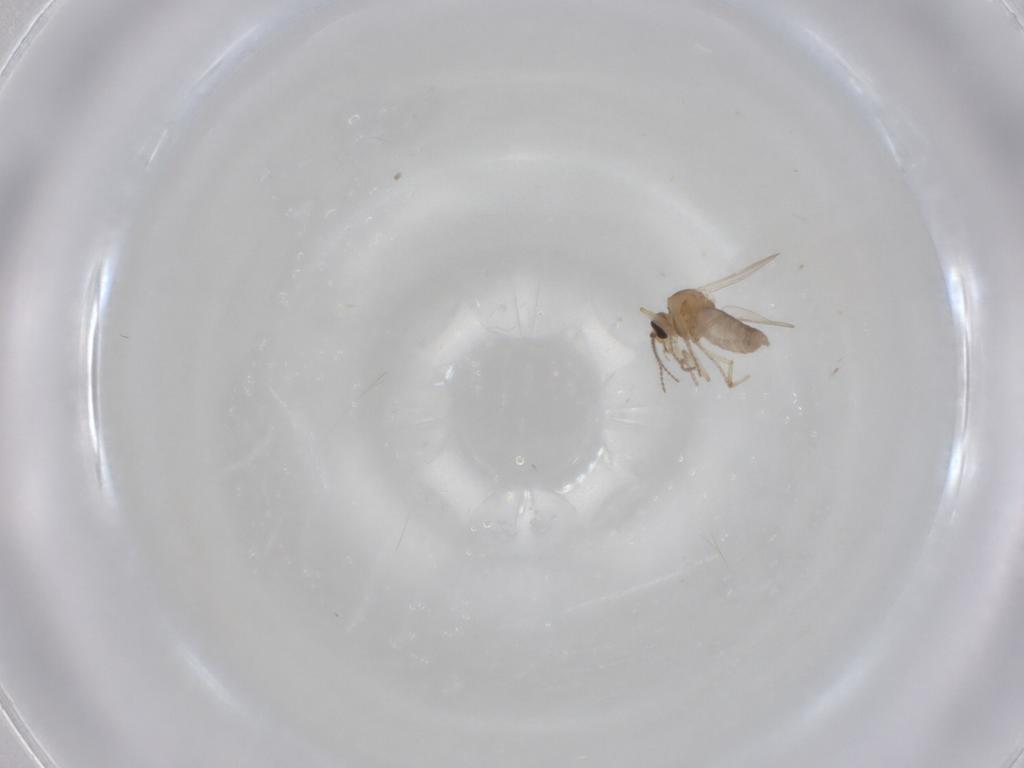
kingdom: Animalia
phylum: Arthropoda
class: Insecta
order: Diptera
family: Ceratopogonidae
